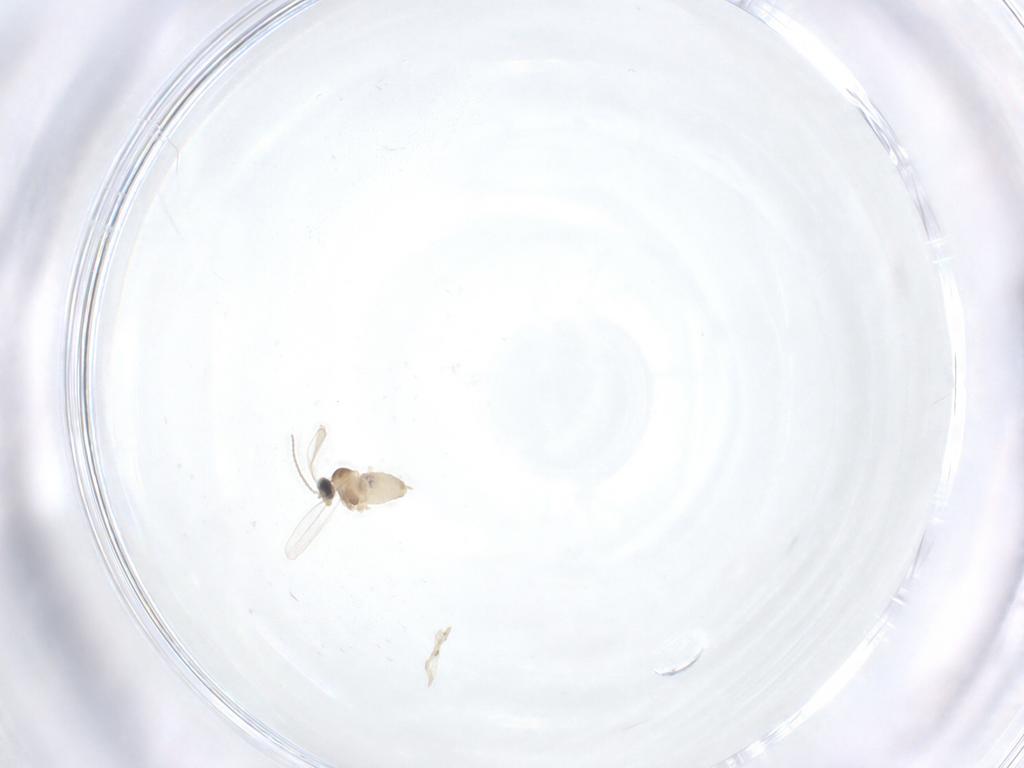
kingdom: Animalia
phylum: Arthropoda
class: Insecta
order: Diptera
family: Cecidomyiidae
